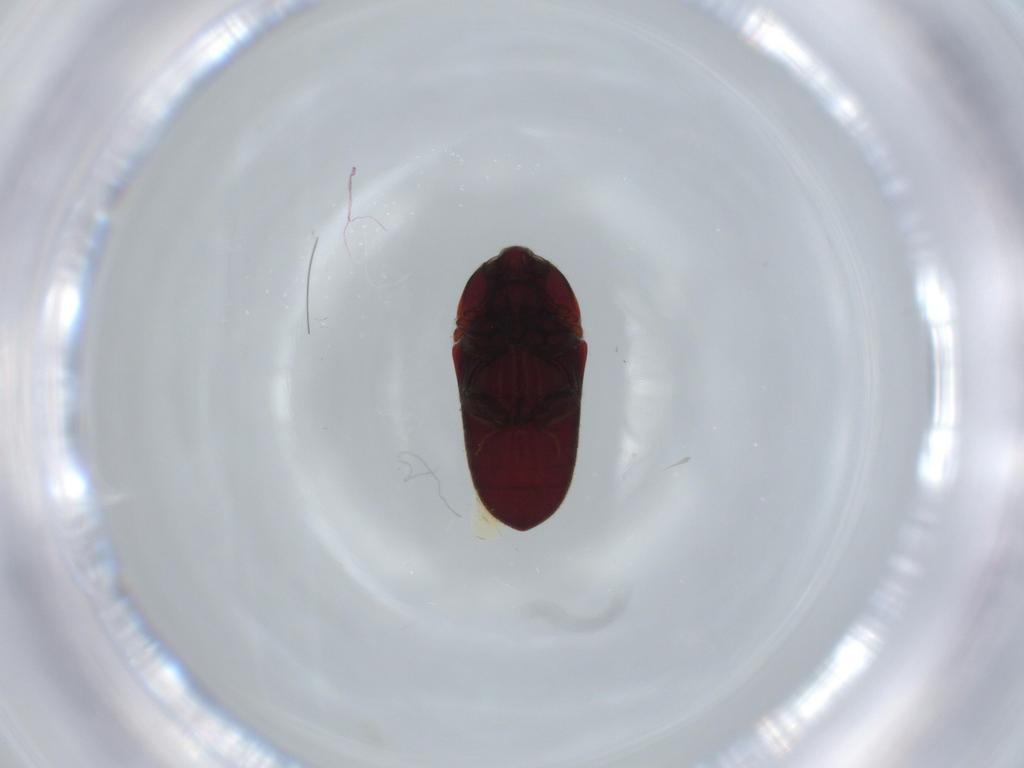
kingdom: Animalia
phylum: Arthropoda
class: Insecta
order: Coleoptera
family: Throscidae
